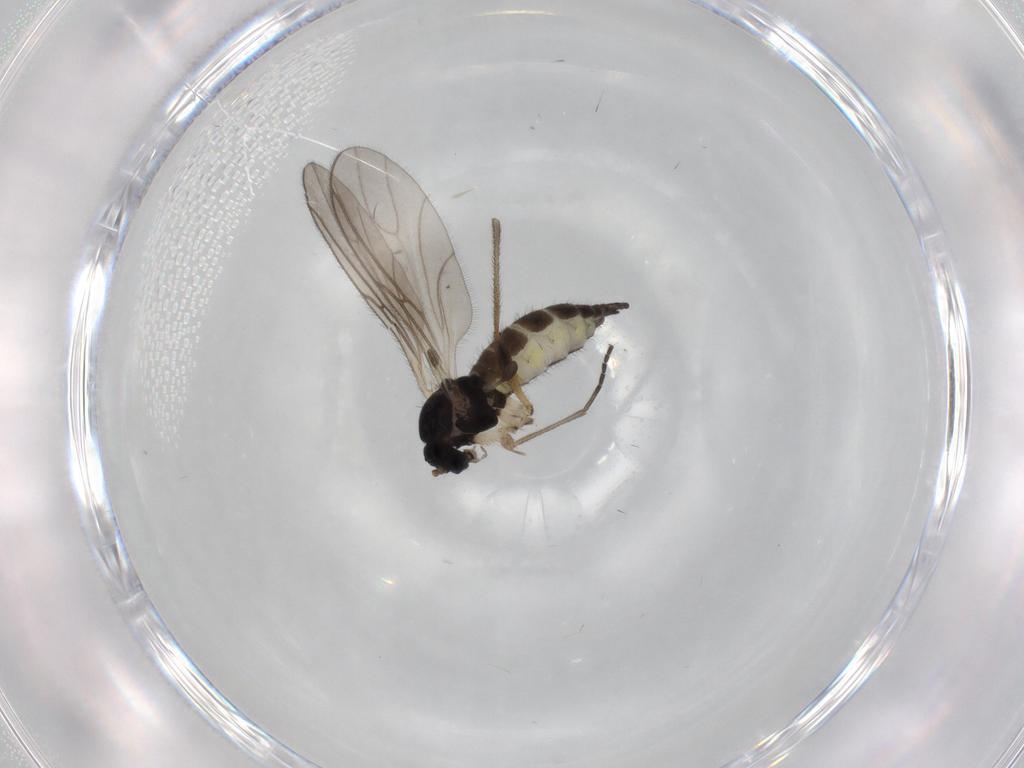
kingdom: Animalia
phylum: Arthropoda
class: Insecta
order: Diptera
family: Sciaridae
